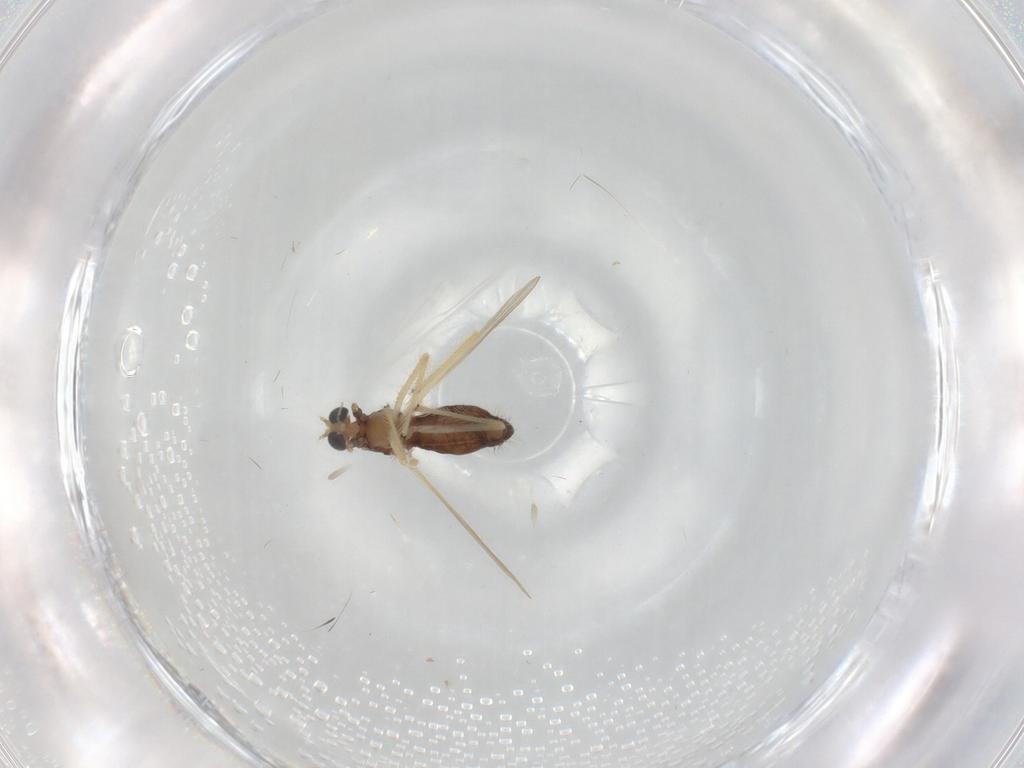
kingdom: Animalia
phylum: Arthropoda
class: Insecta
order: Diptera
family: Chironomidae
